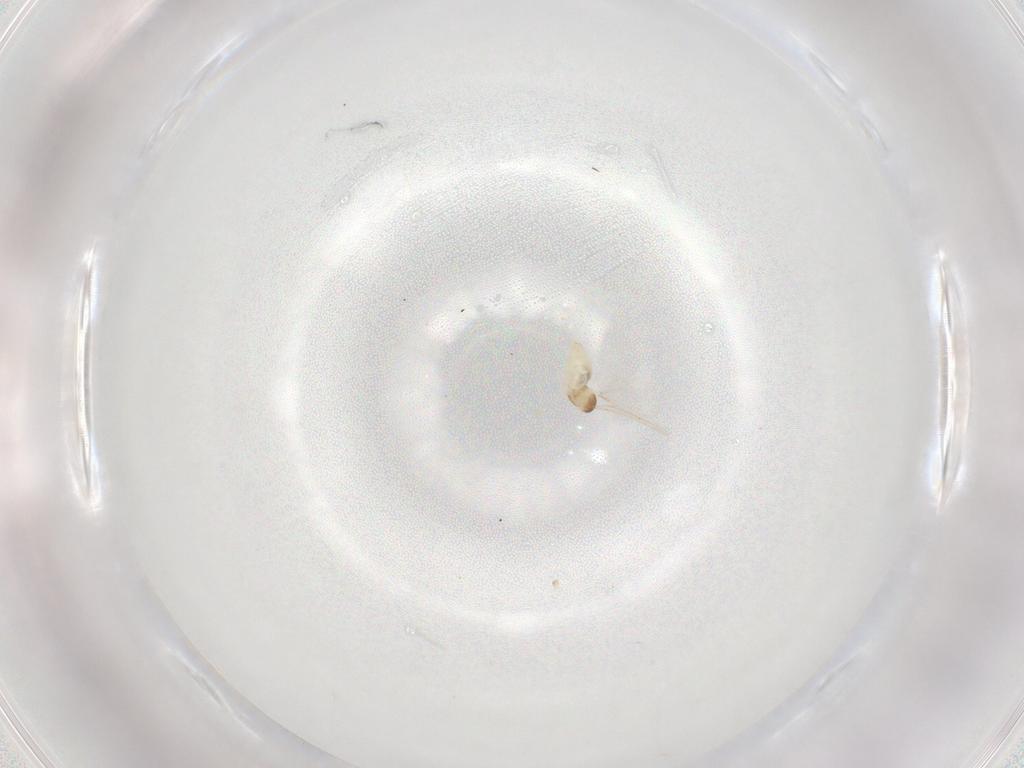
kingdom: Animalia
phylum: Arthropoda
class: Insecta
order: Diptera
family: Cecidomyiidae
